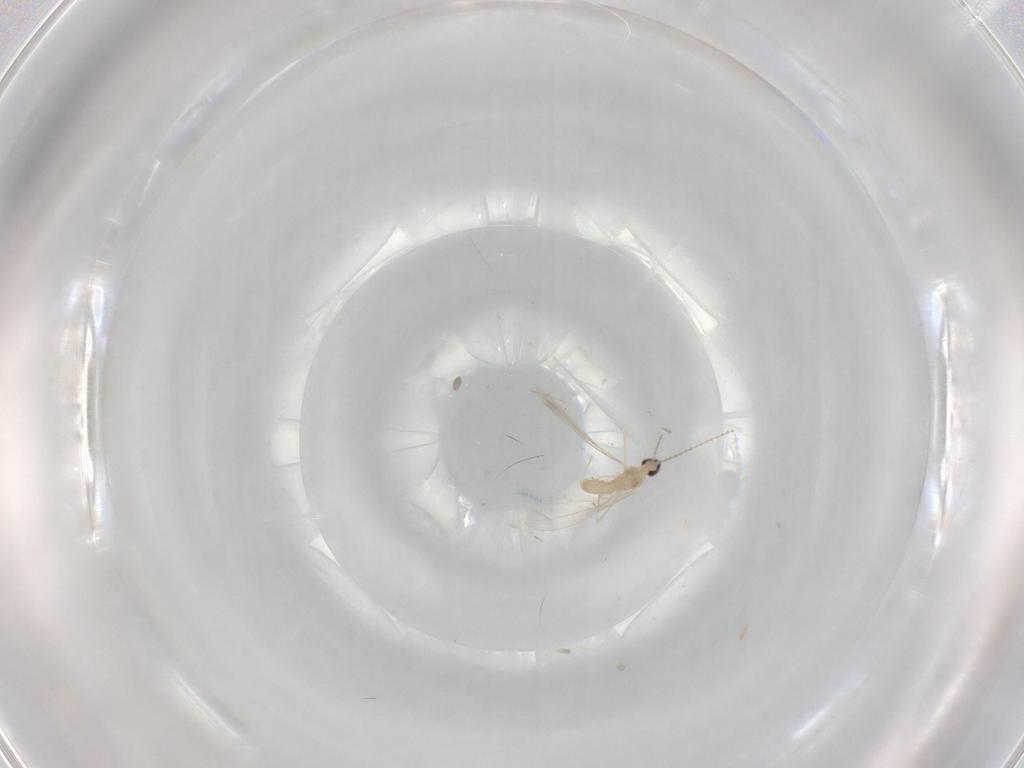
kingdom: Animalia
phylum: Arthropoda
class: Insecta
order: Diptera
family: Cecidomyiidae
